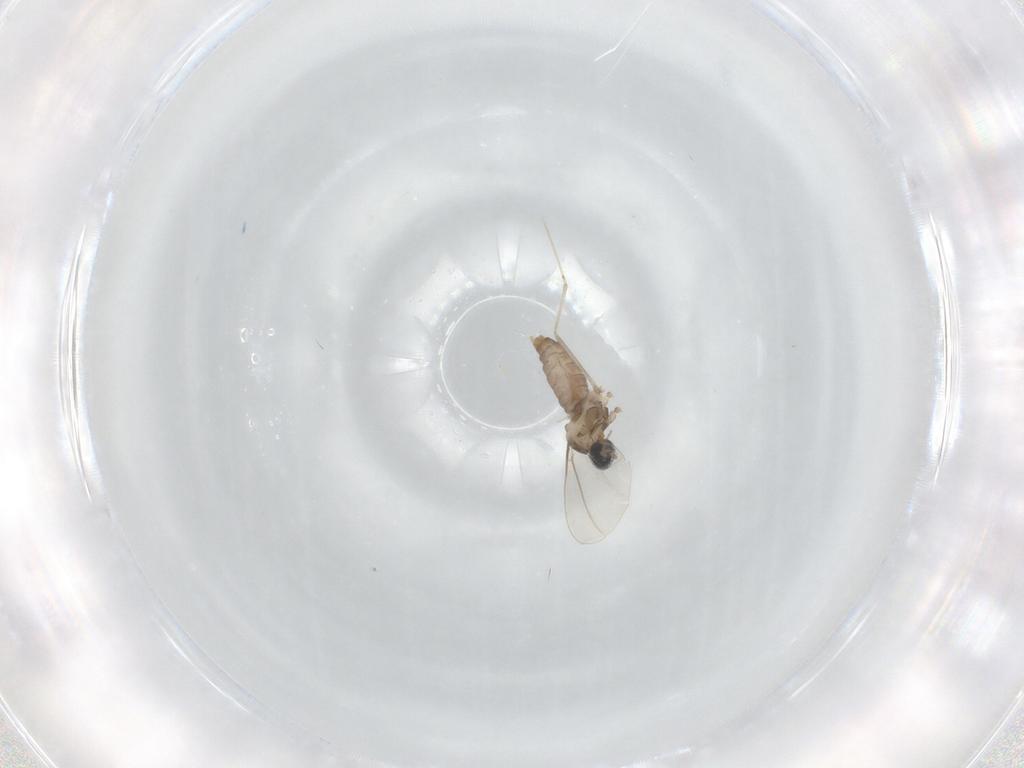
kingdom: Animalia
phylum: Arthropoda
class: Insecta
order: Diptera
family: Cecidomyiidae
